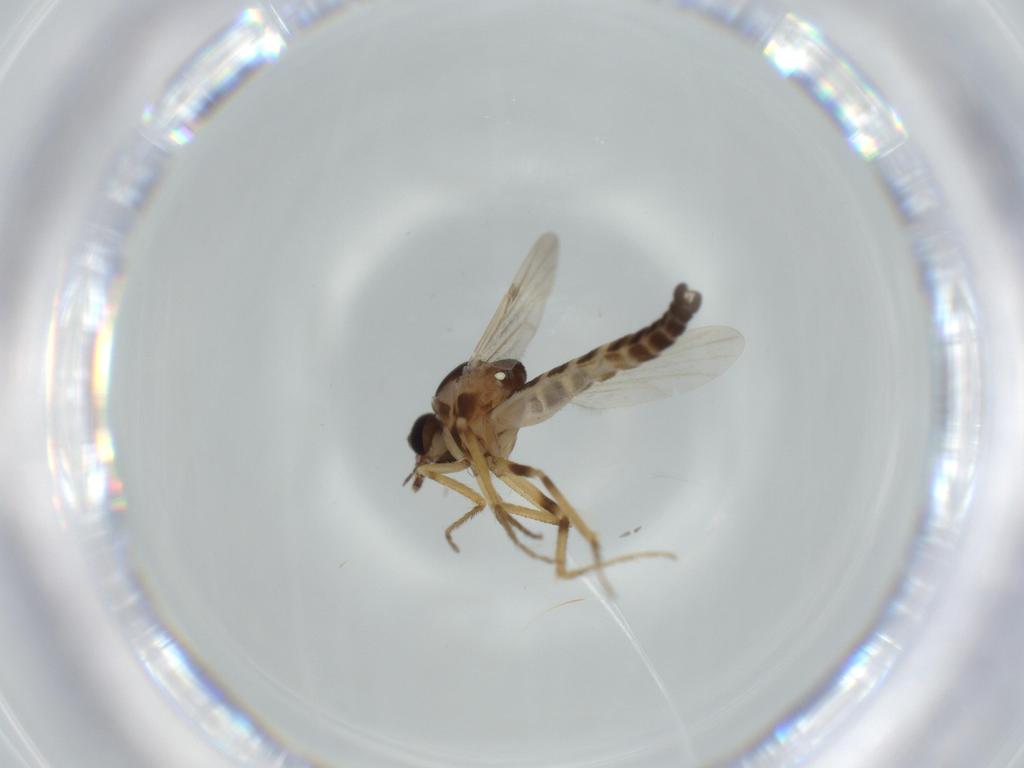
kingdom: Animalia
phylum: Arthropoda
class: Insecta
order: Diptera
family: Ceratopogonidae
